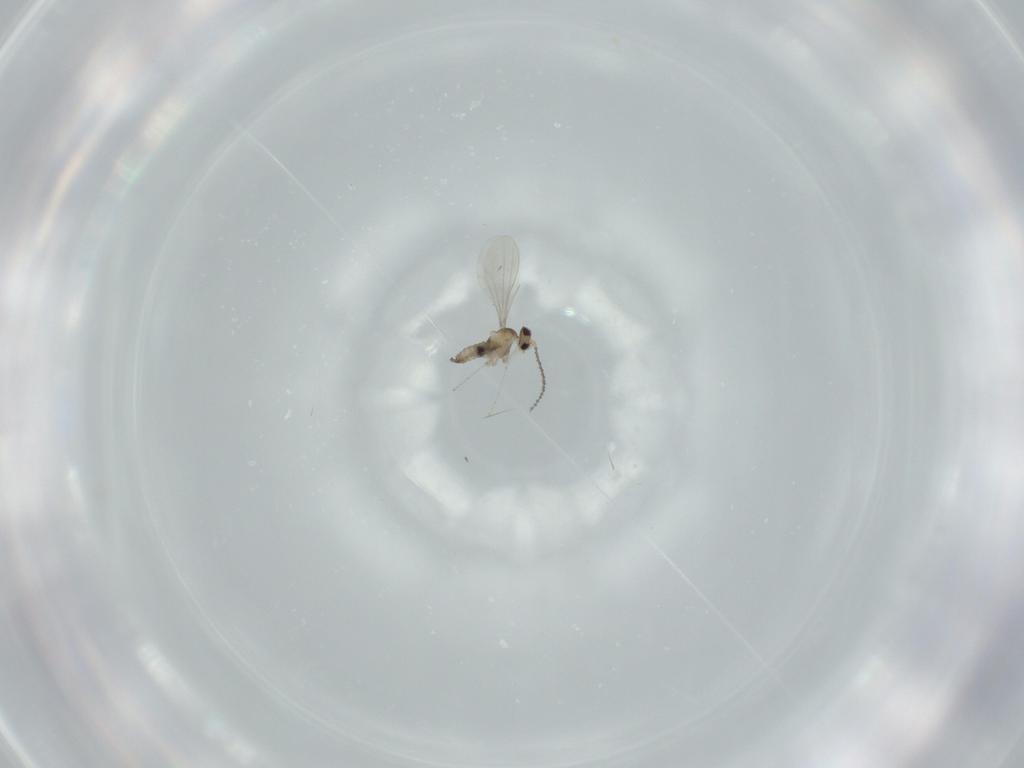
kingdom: Animalia
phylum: Arthropoda
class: Insecta
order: Diptera
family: Cecidomyiidae
